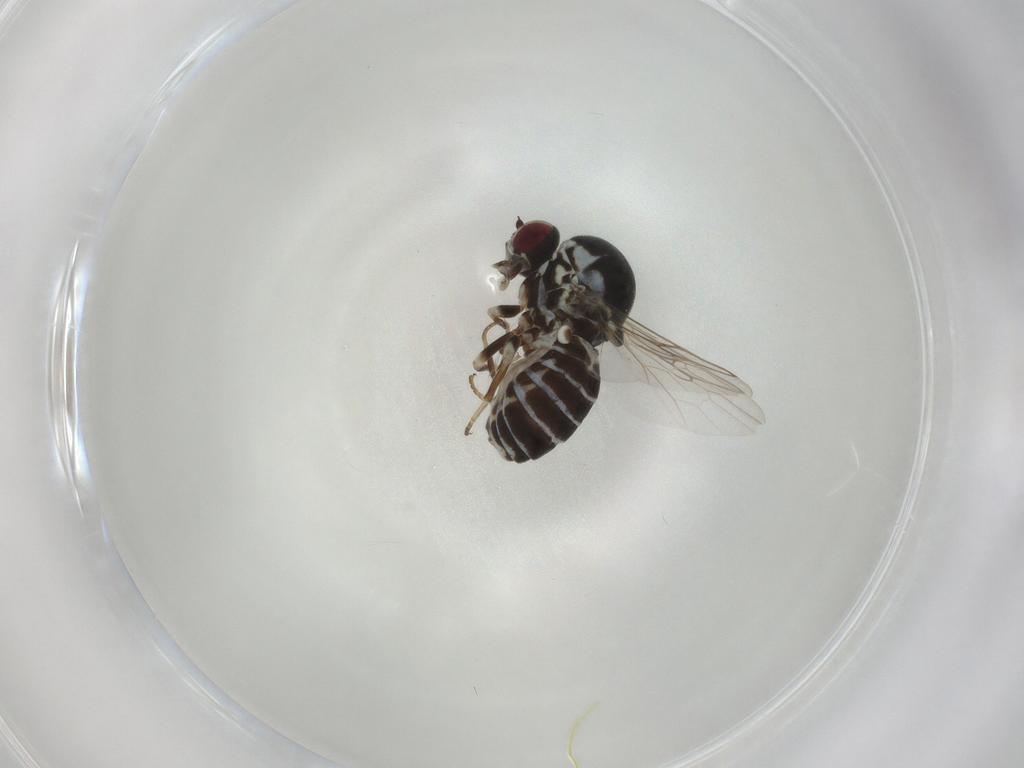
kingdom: Animalia
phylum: Arthropoda
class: Insecta
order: Diptera
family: Bombyliidae
